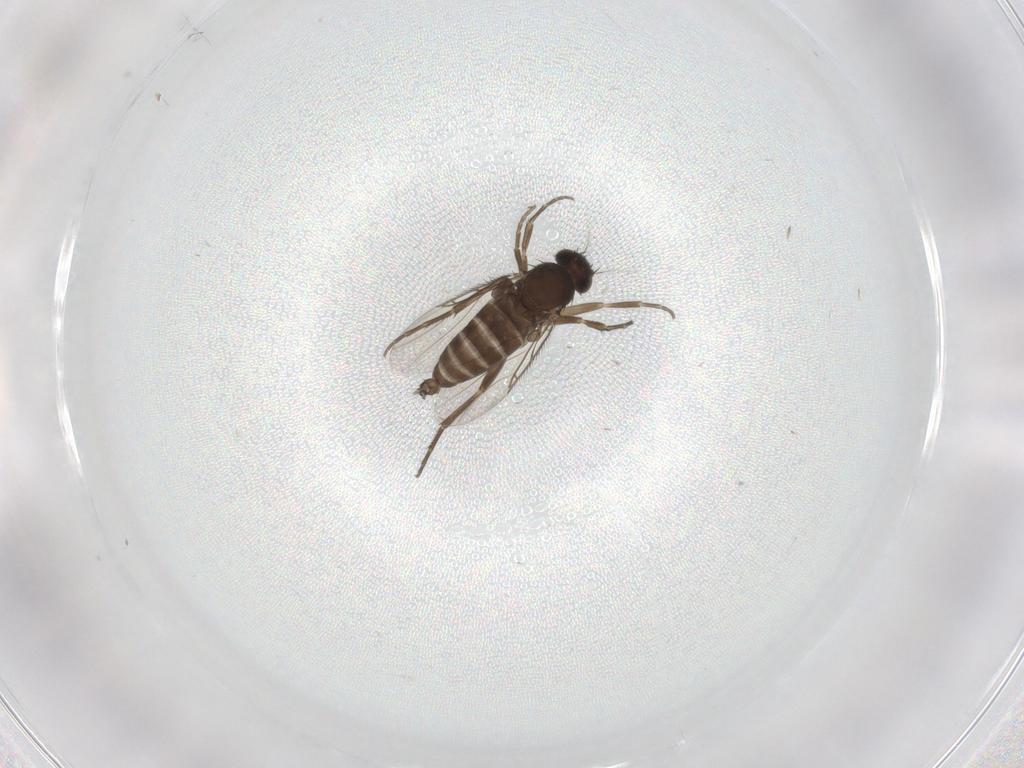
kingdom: Animalia
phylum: Arthropoda
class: Insecta
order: Diptera
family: Phoridae
